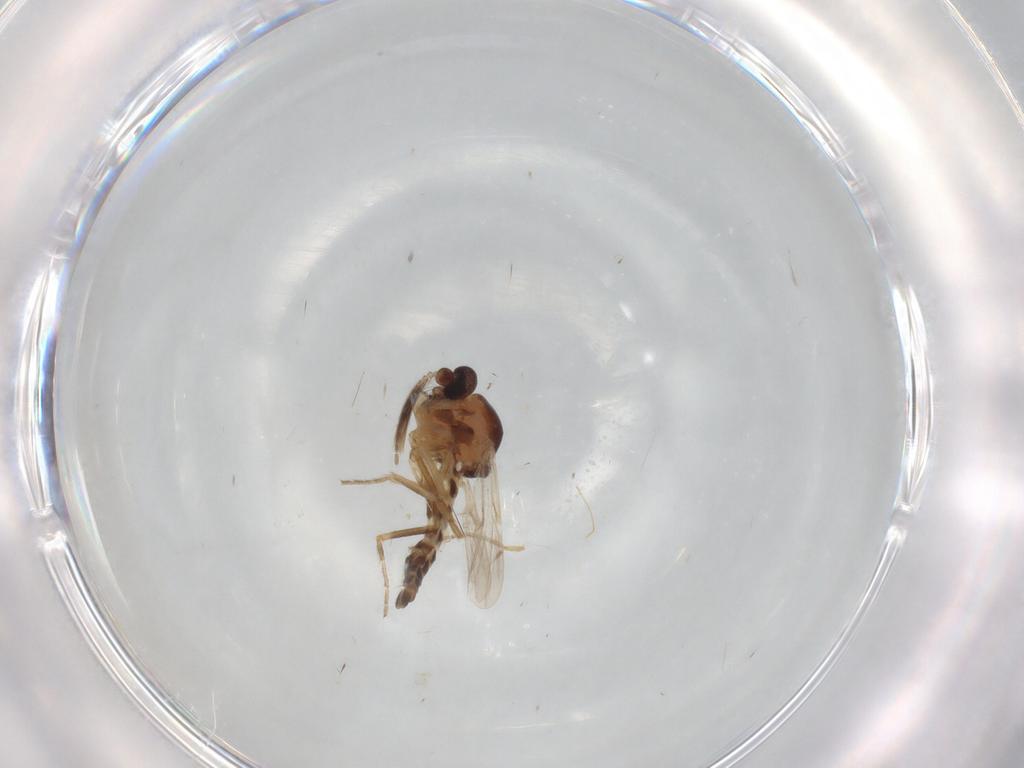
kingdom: Animalia
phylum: Arthropoda
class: Insecta
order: Diptera
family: Ceratopogonidae
